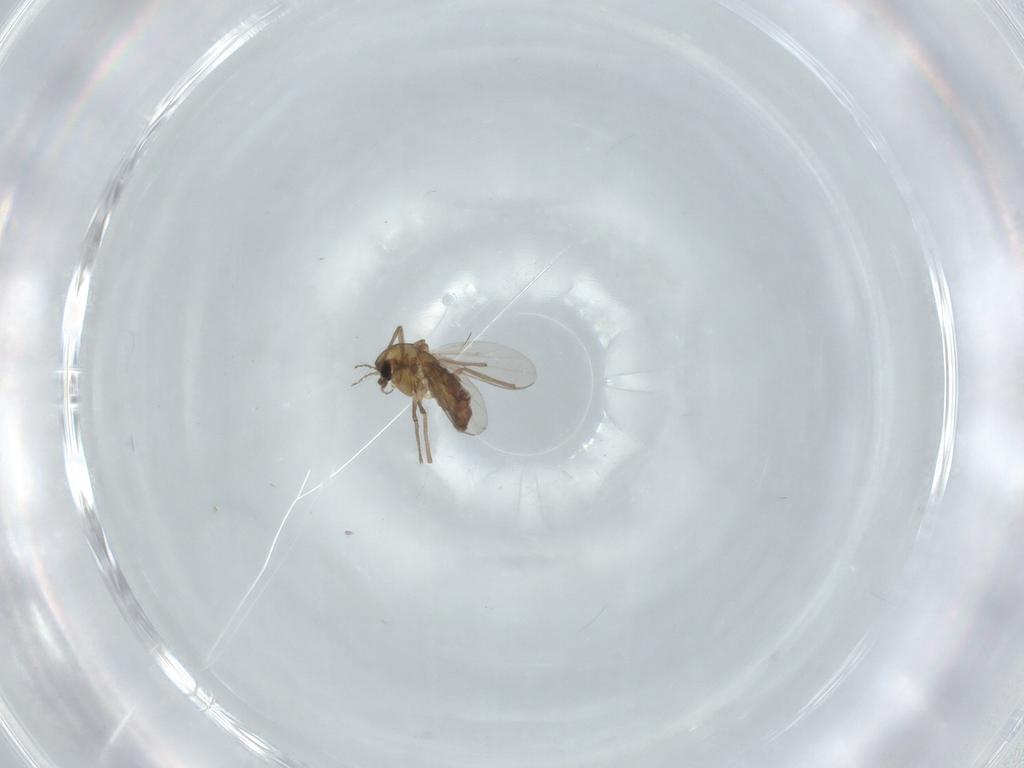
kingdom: Animalia
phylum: Arthropoda
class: Insecta
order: Diptera
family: Chironomidae
